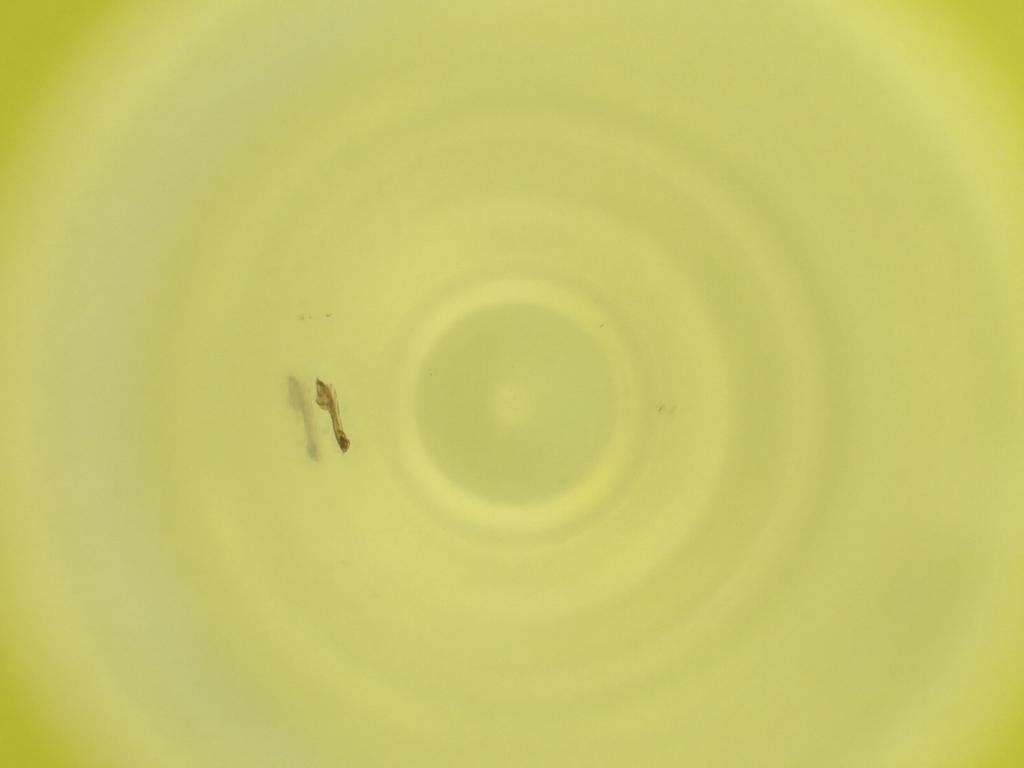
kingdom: Animalia
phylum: Arthropoda
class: Insecta
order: Diptera
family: Cecidomyiidae
